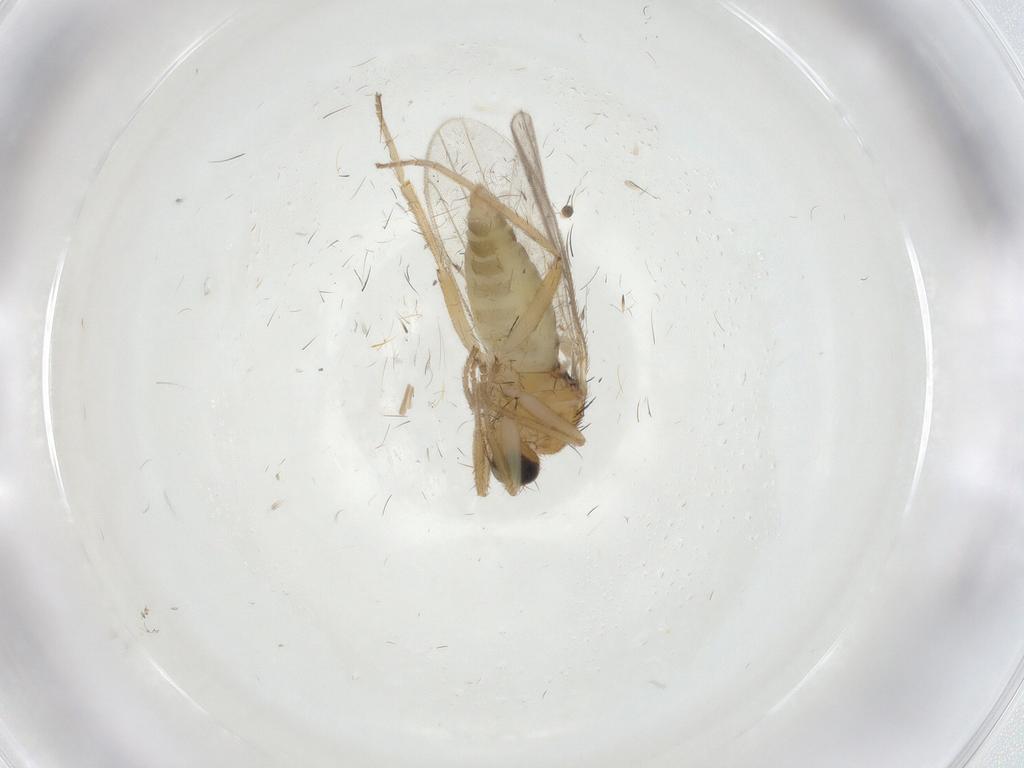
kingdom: Animalia
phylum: Arthropoda
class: Insecta
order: Diptera
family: Hybotidae
